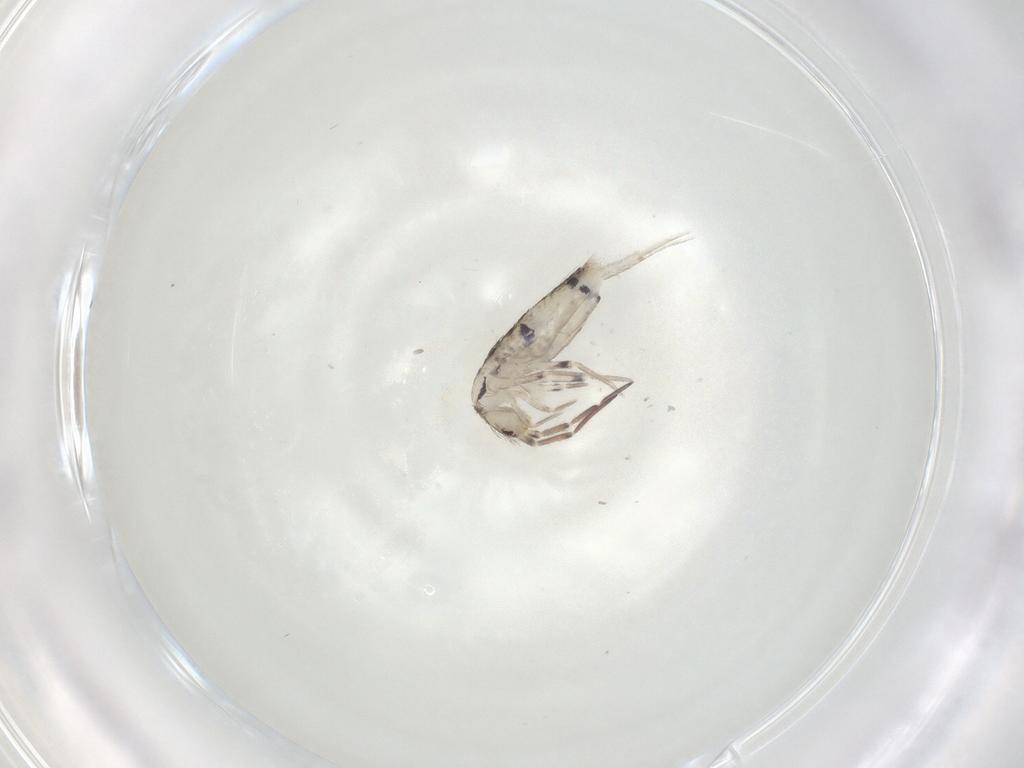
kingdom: Animalia
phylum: Arthropoda
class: Collembola
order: Entomobryomorpha
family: Entomobryidae
